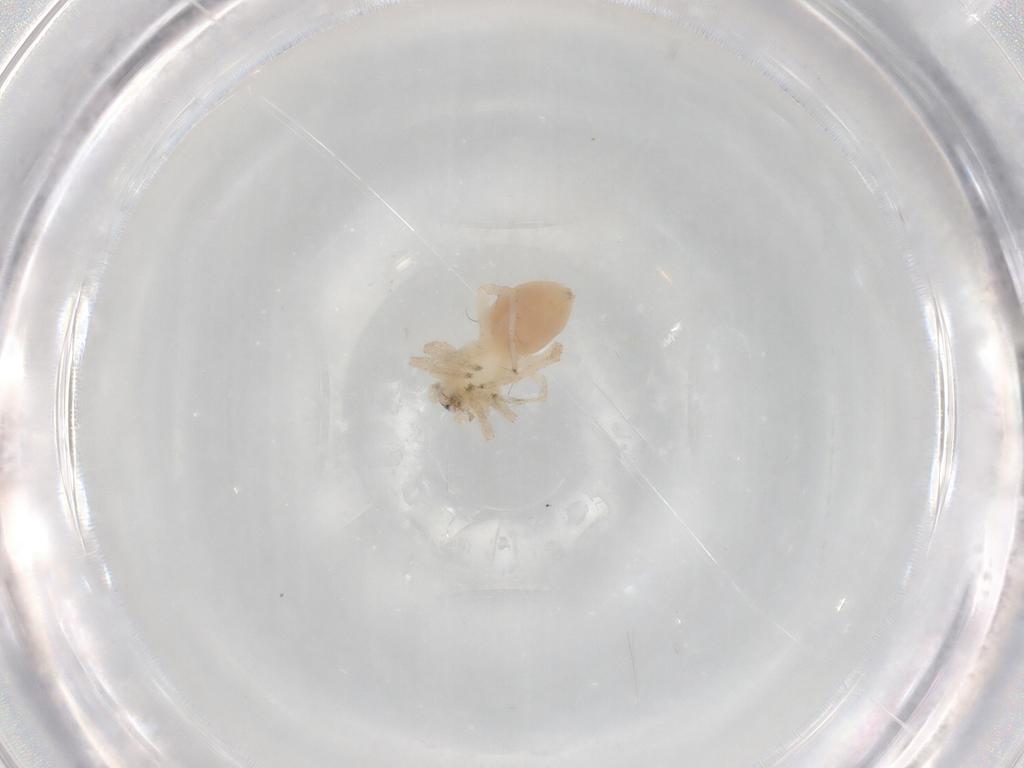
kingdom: Animalia
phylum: Arthropoda
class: Arachnida
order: Araneae
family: Anyphaenidae
